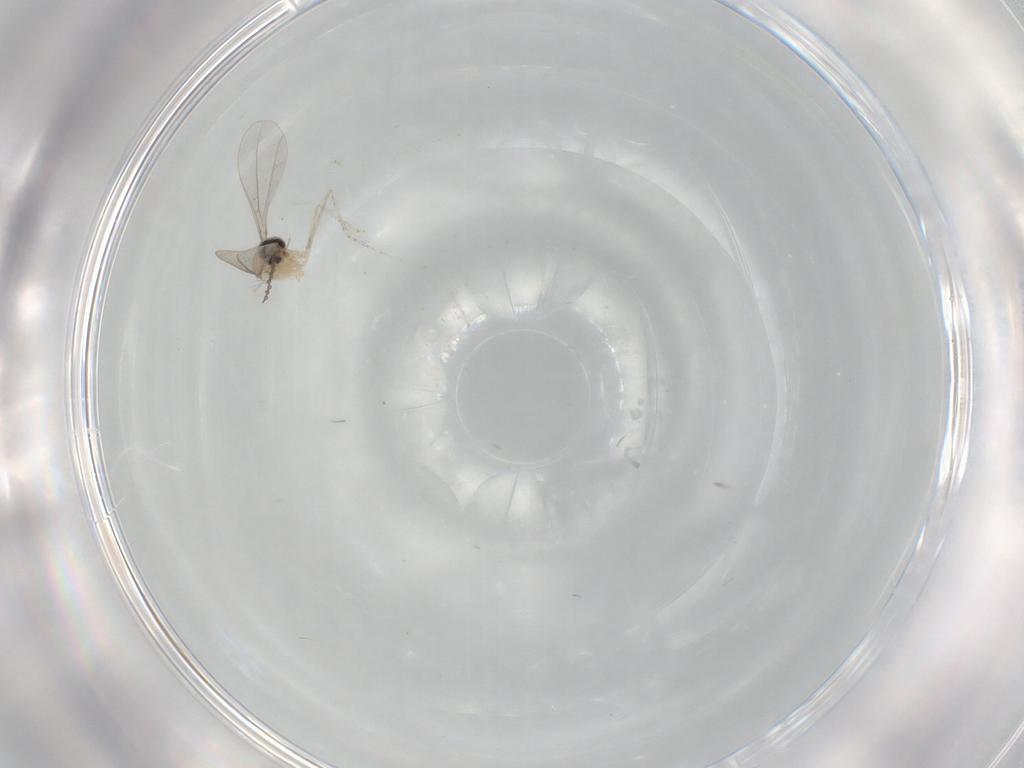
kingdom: Animalia
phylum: Arthropoda
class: Insecta
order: Diptera
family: Cecidomyiidae
